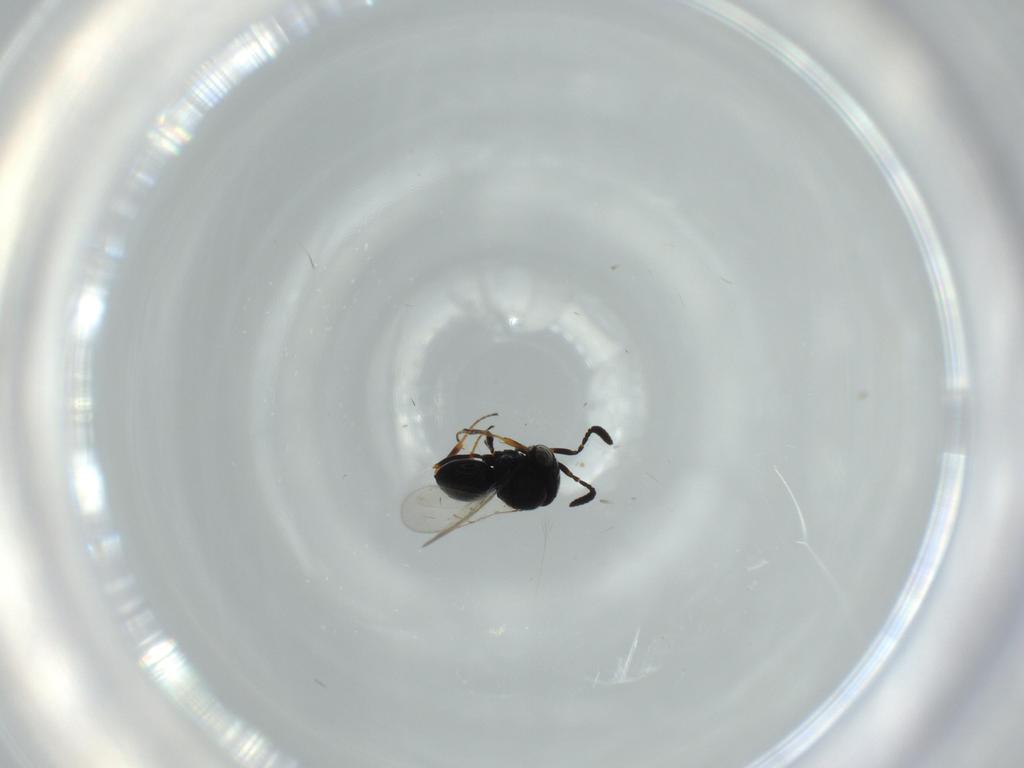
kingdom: Animalia
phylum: Arthropoda
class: Insecta
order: Hymenoptera
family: Scelionidae
